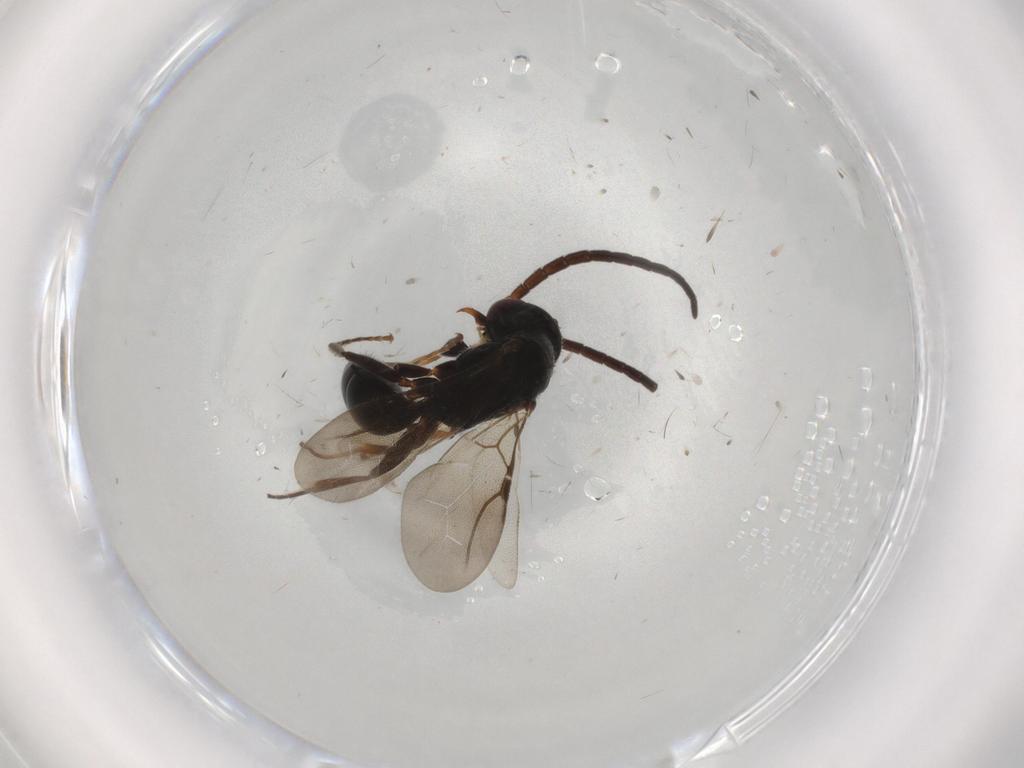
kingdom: Animalia
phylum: Arthropoda
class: Insecta
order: Hymenoptera
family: Bethylidae
